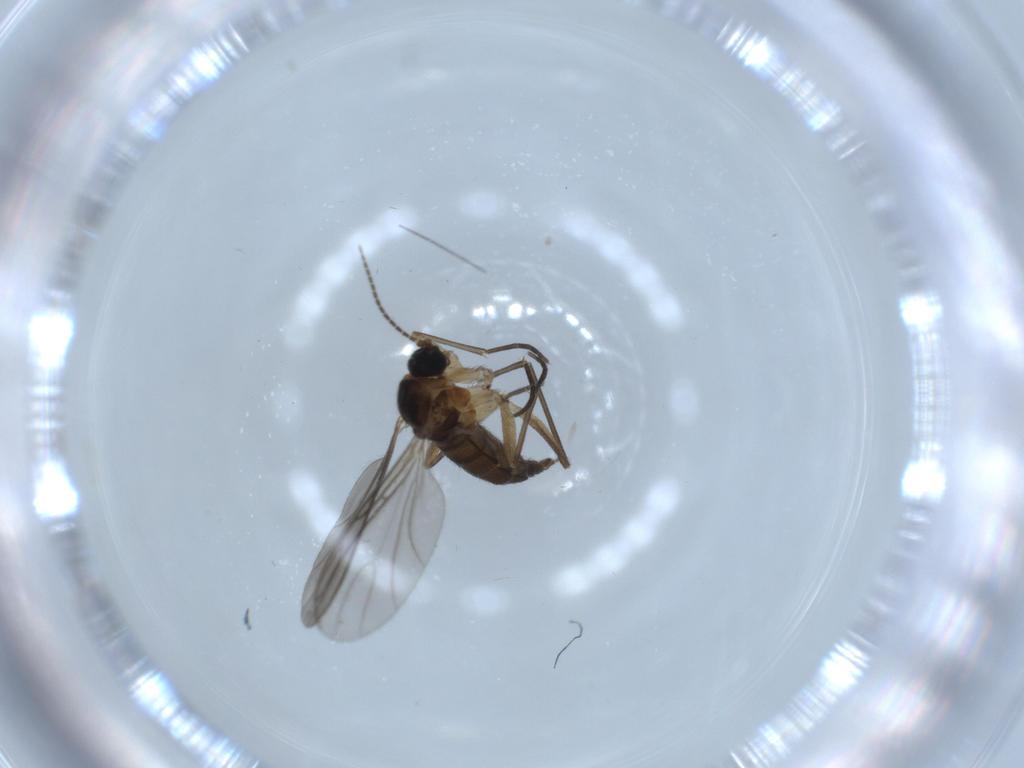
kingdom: Animalia
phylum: Arthropoda
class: Insecta
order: Diptera
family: Sciaridae
